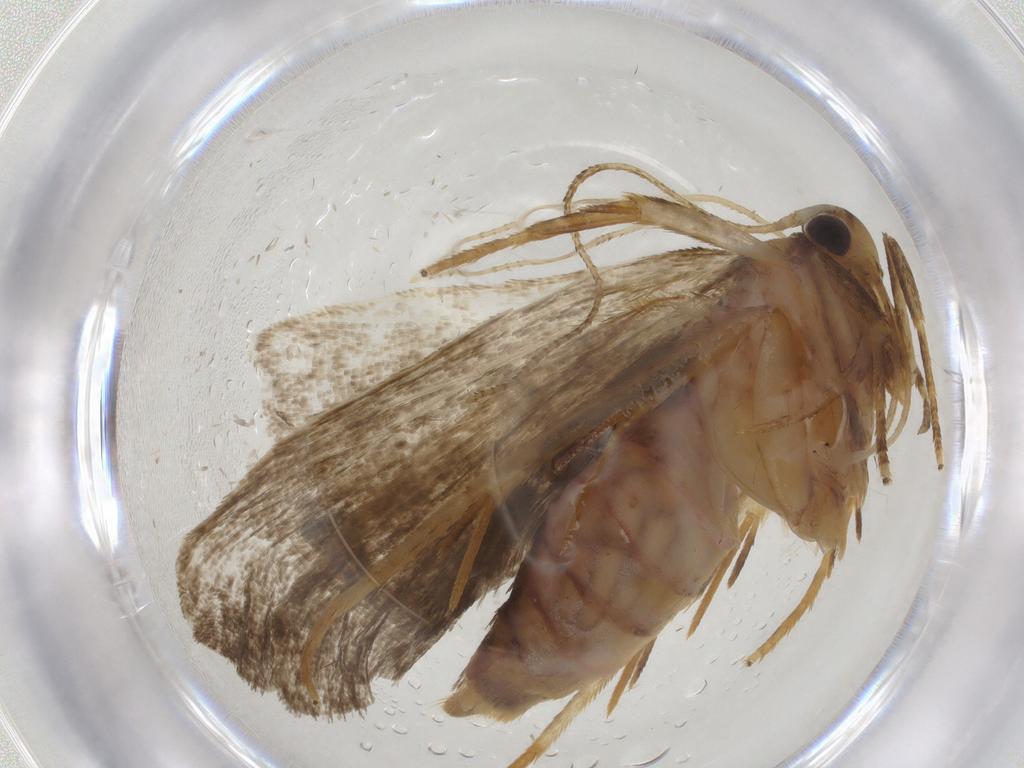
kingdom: Animalia
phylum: Arthropoda
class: Insecta
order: Lepidoptera
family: Autostichidae
